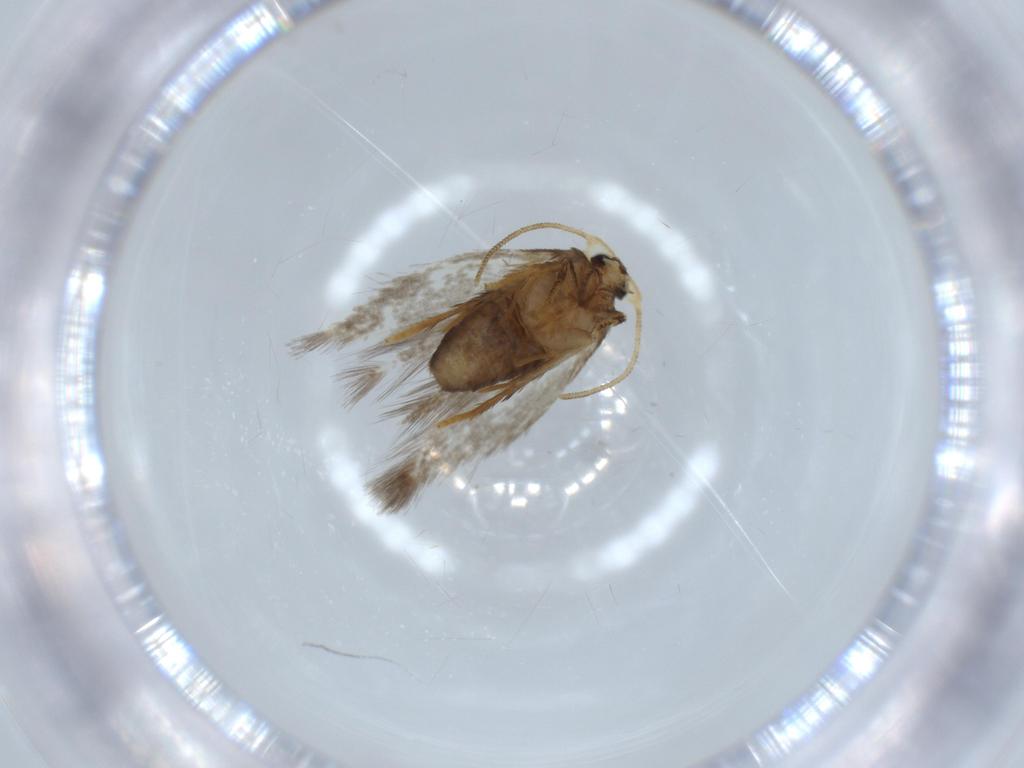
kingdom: Animalia
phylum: Arthropoda
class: Insecta
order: Lepidoptera
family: Nepticulidae
